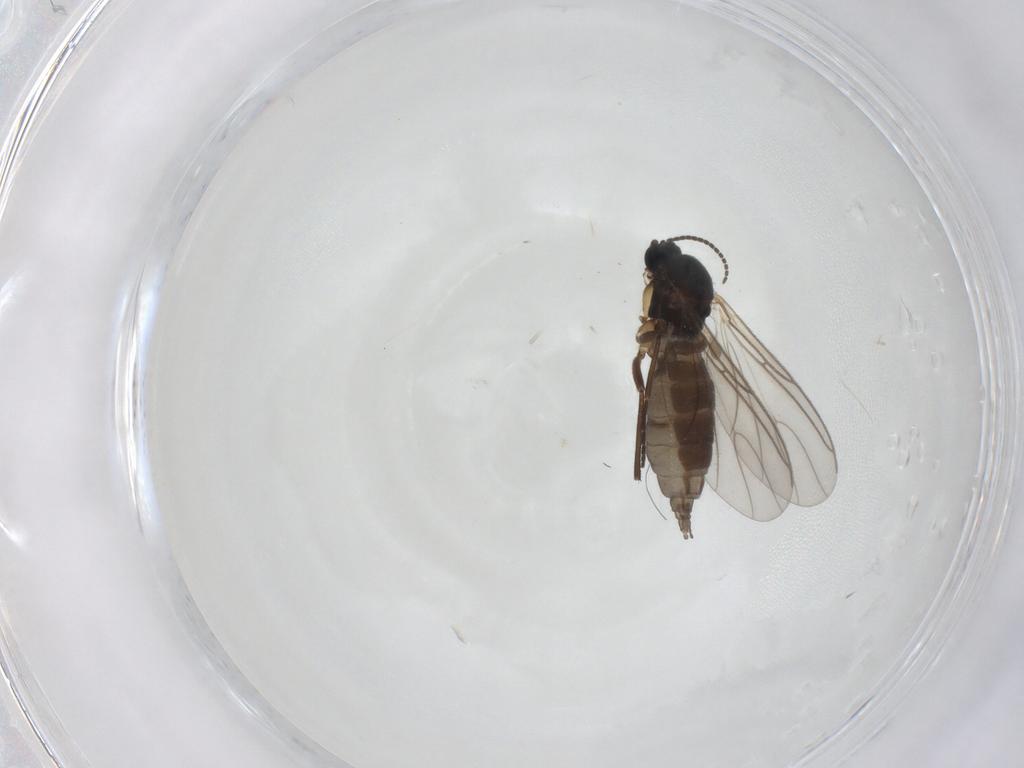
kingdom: Animalia
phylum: Arthropoda
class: Insecta
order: Diptera
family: Sciaridae
